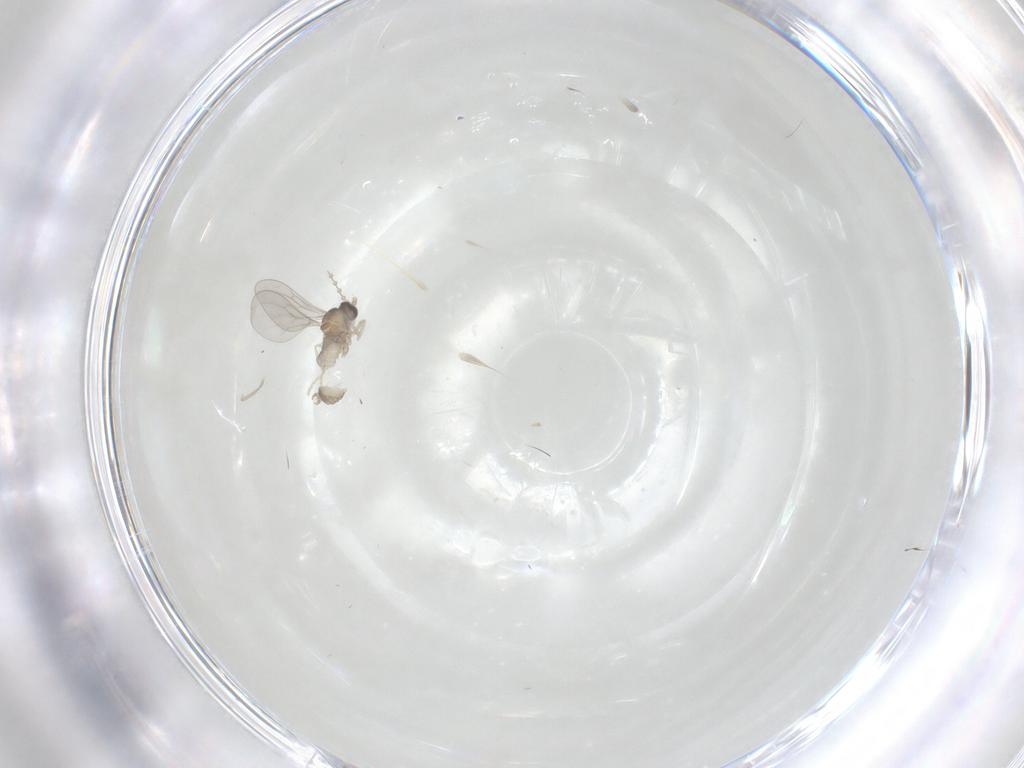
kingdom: Animalia
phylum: Arthropoda
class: Insecta
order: Diptera
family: Cecidomyiidae
